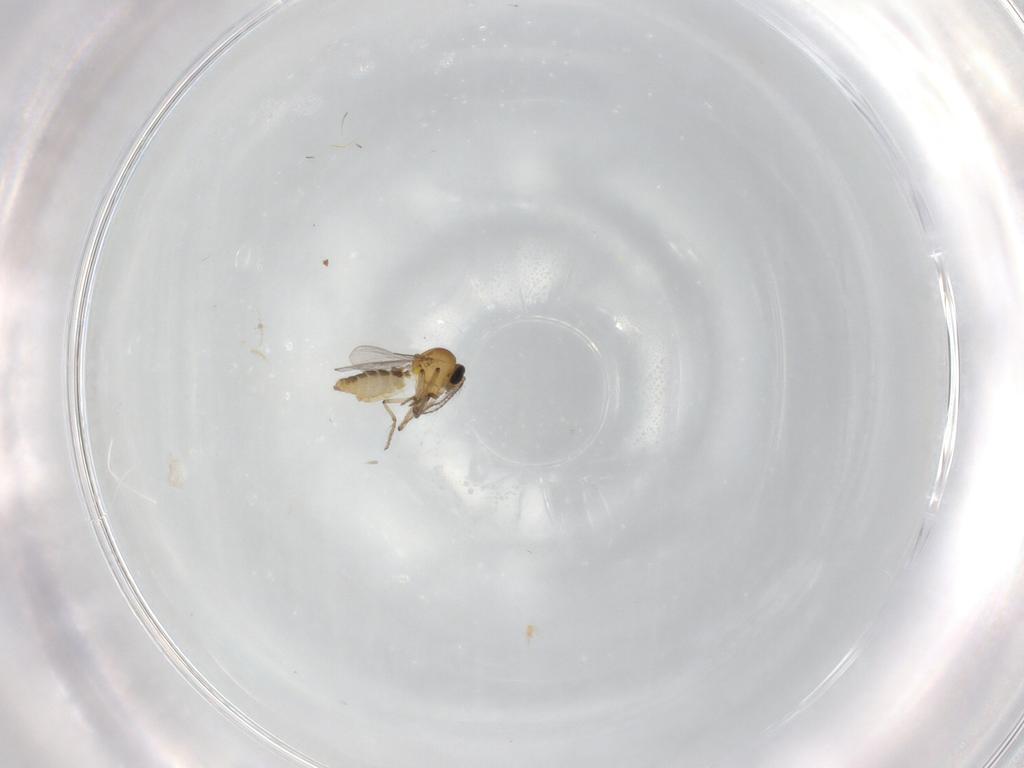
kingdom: Animalia
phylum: Arthropoda
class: Insecta
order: Diptera
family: Ceratopogonidae
